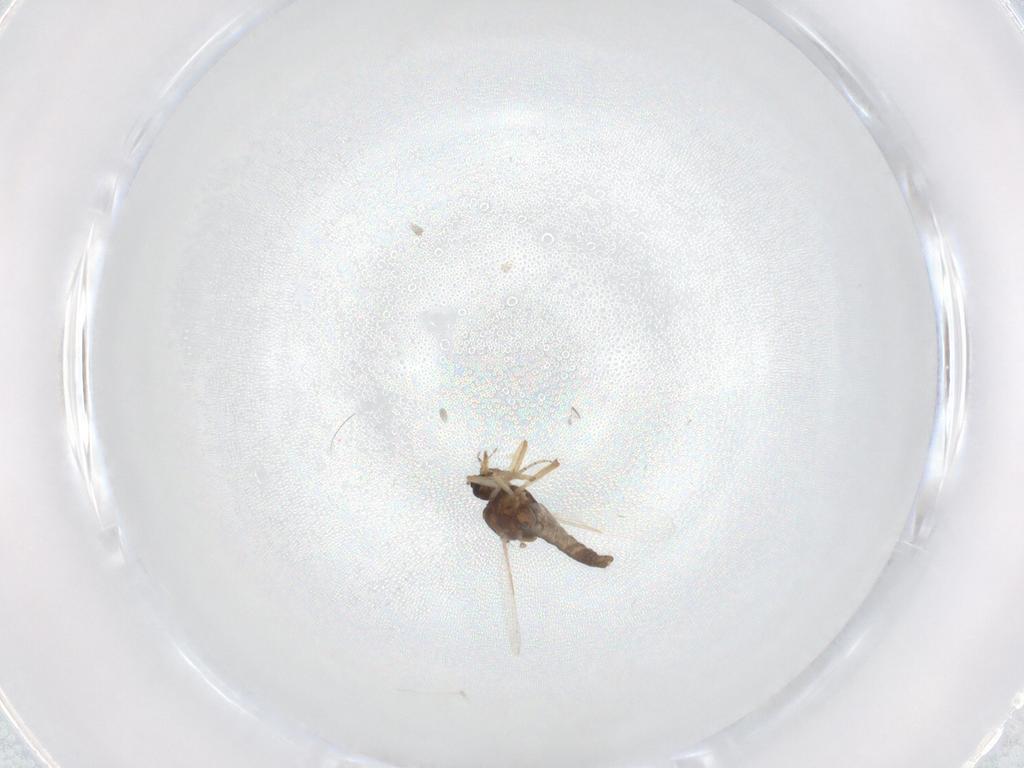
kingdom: Animalia
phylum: Arthropoda
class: Insecta
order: Diptera
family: Ceratopogonidae
